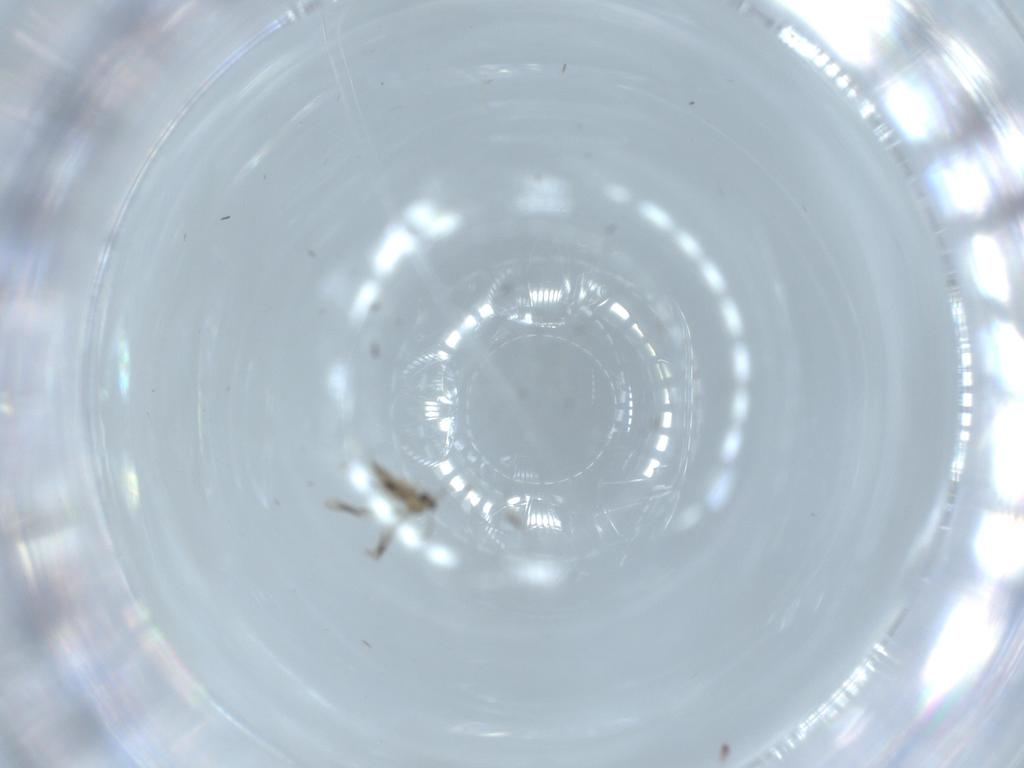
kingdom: Animalia
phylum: Arthropoda
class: Insecta
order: Diptera
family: Cecidomyiidae
